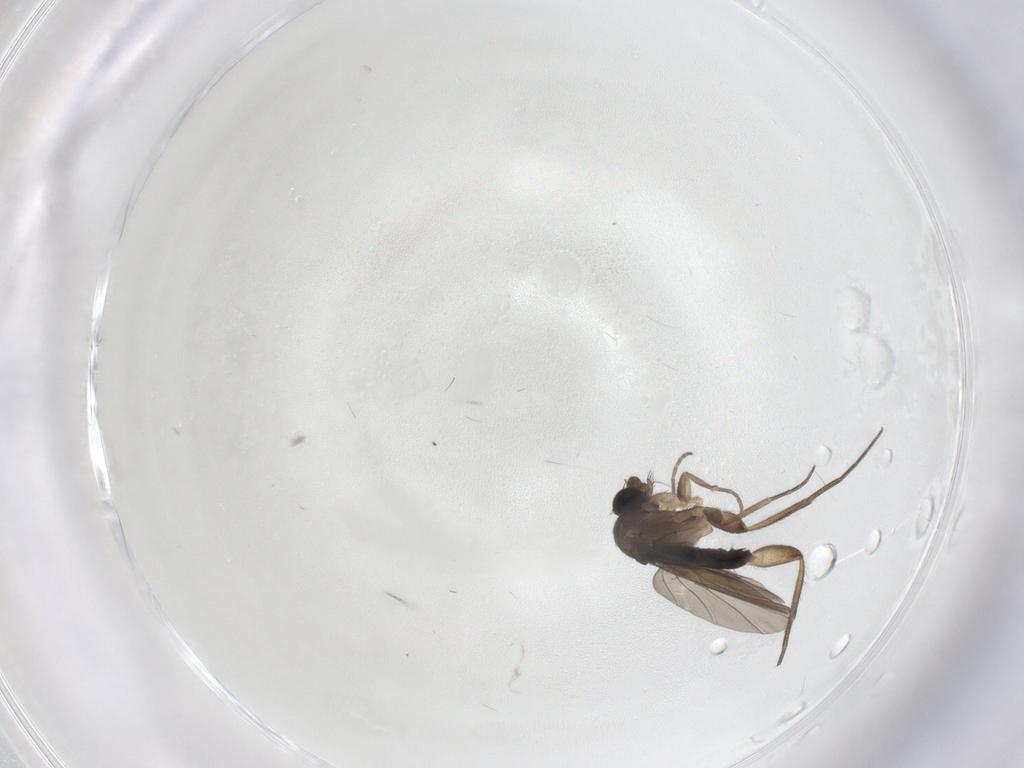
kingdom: Animalia
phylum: Arthropoda
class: Insecta
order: Diptera
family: Phoridae
